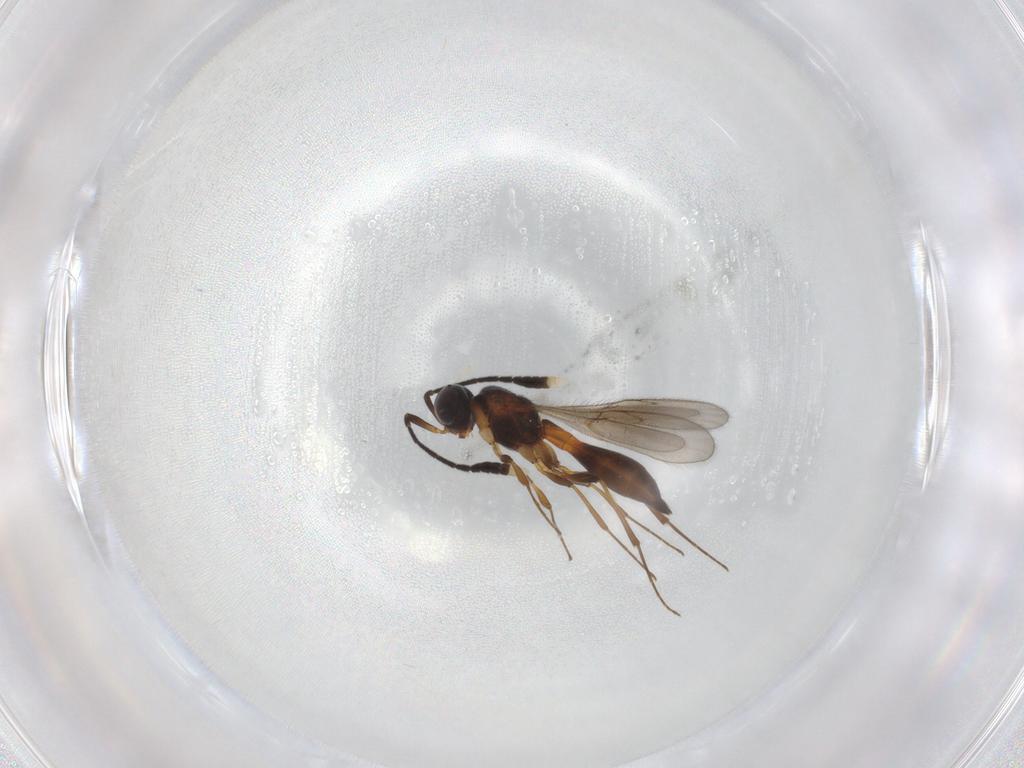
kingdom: Animalia
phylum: Arthropoda
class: Insecta
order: Hymenoptera
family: Scelionidae
